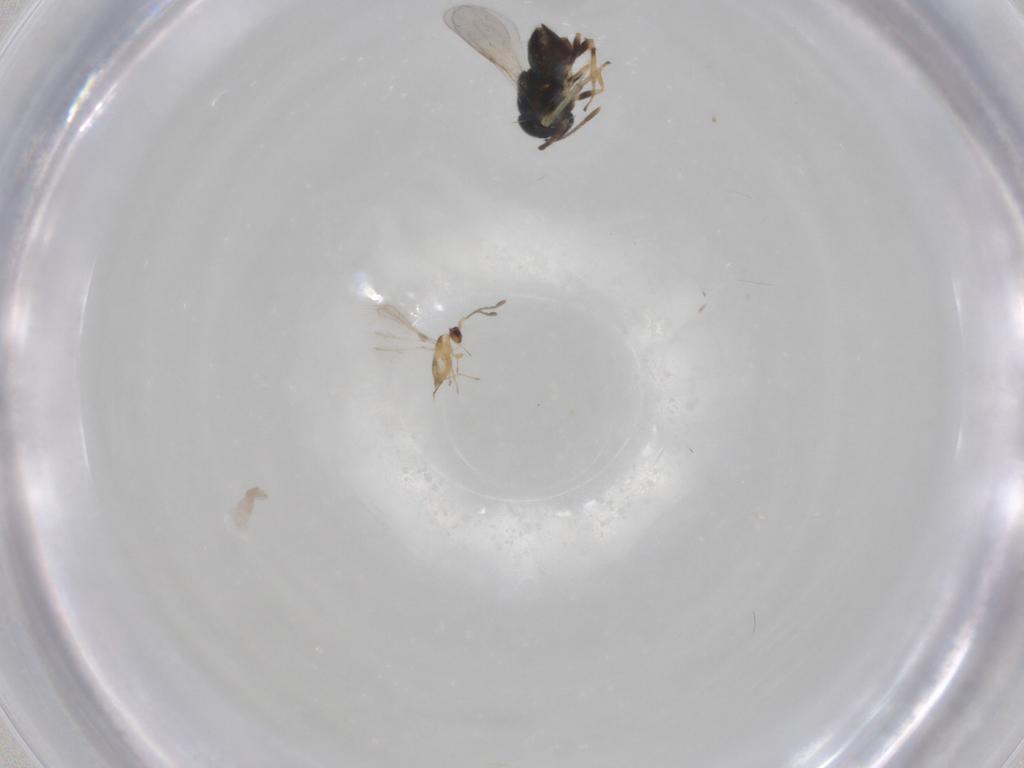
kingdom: Animalia
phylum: Arthropoda
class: Insecta
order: Hymenoptera
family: Encyrtidae
